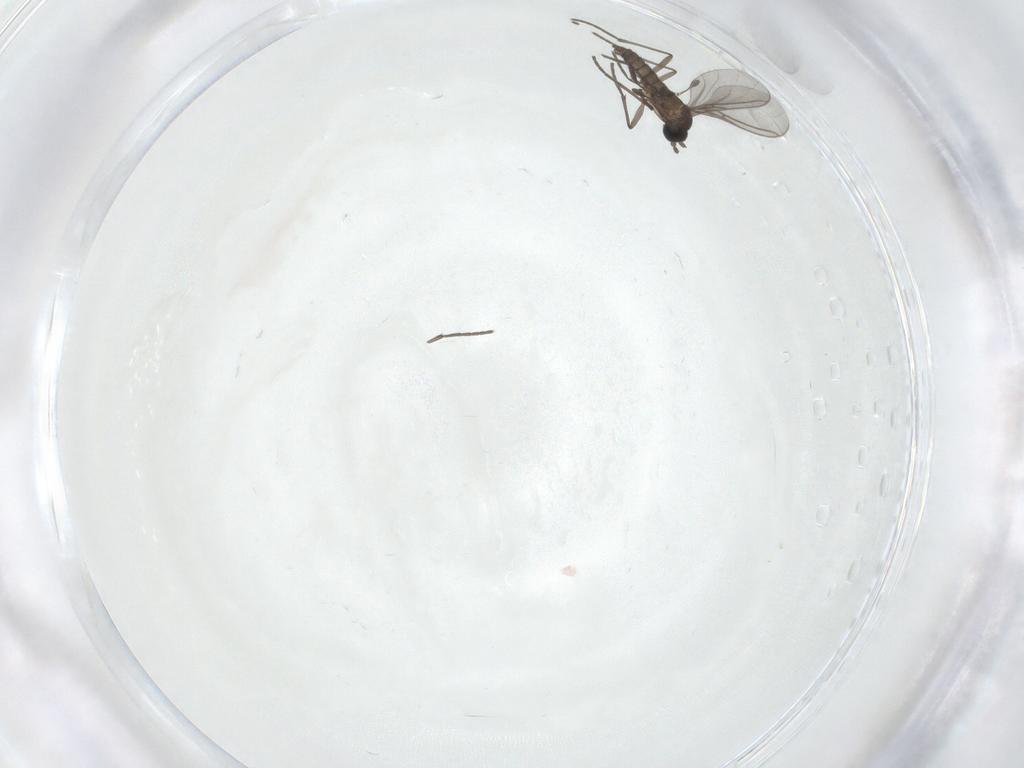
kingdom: Animalia
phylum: Arthropoda
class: Insecta
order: Diptera
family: Sciaridae
